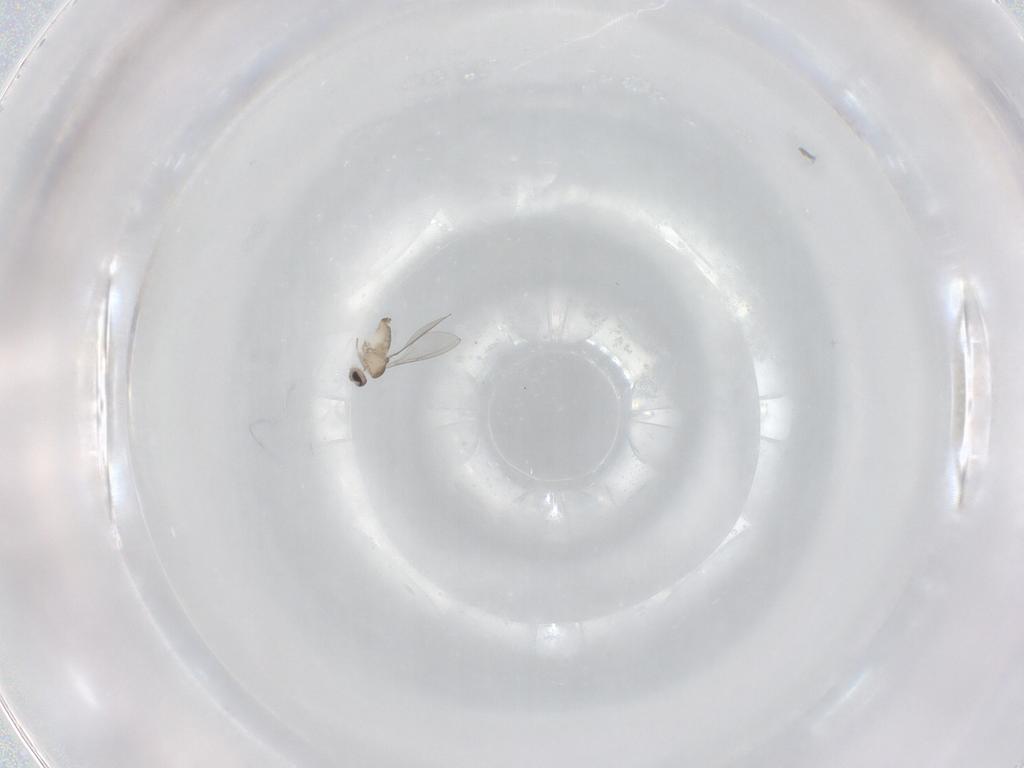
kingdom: Animalia
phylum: Arthropoda
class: Insecta
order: Diptera
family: Cecidomyiidae
